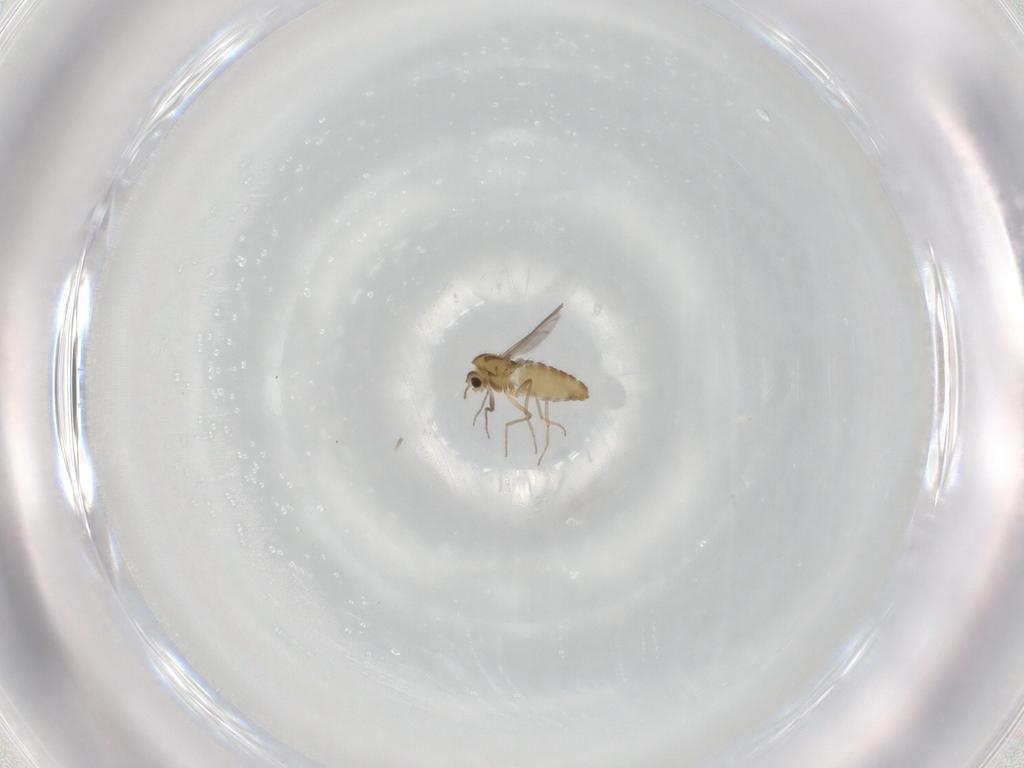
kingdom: Animalia
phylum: Arthropoda
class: Insecta
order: Diptera
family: Chironomidae
